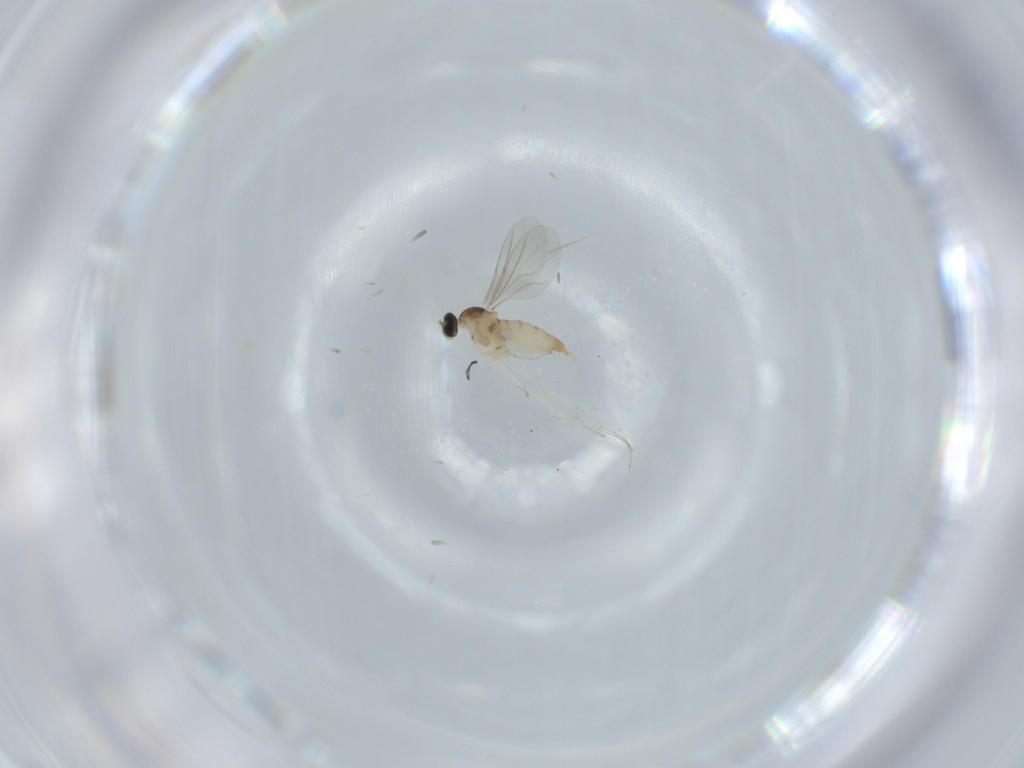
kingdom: Animalia
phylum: Arthropoda
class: Insecta
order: Diptera
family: Cecidomyiidae
